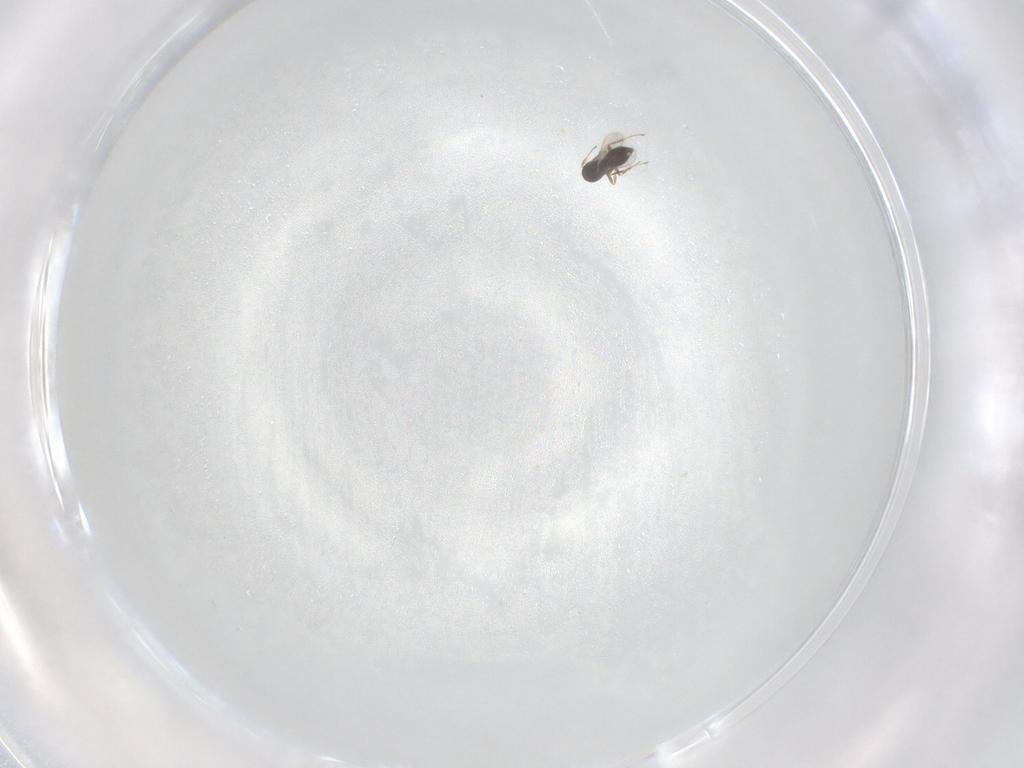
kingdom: Animalia
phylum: Arthropoda
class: Insecta
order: Hymenoptera
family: Scelionidae
